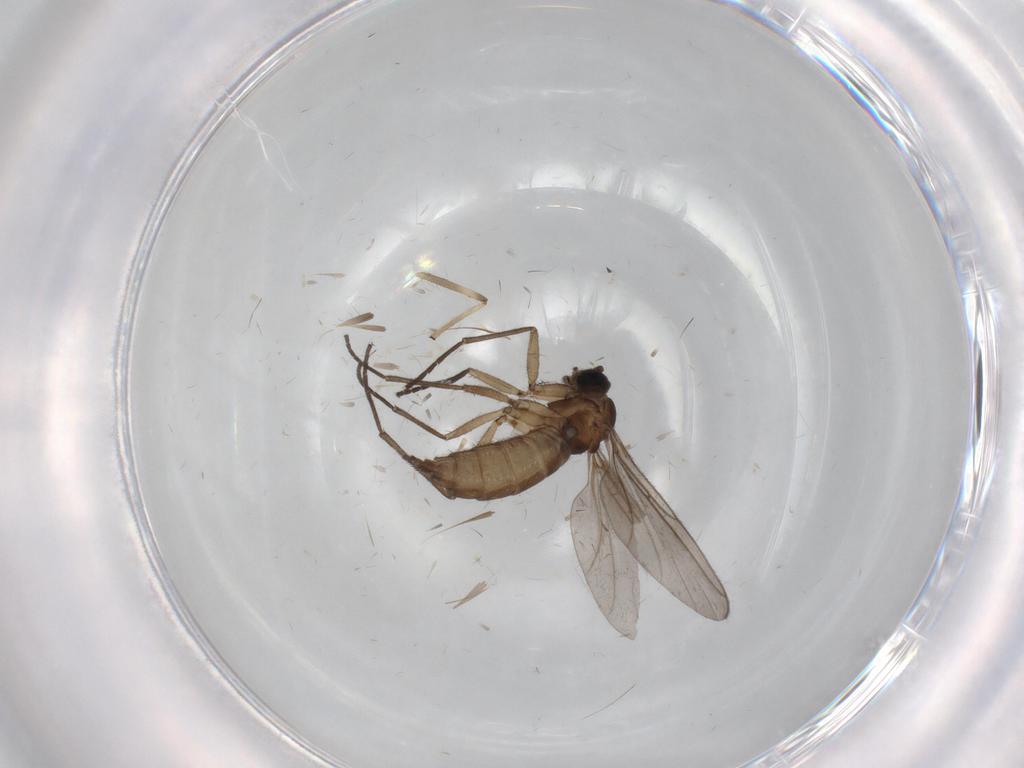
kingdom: Animalia
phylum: Arthropoda
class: Insecta
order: Diptera
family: Sciaridae
